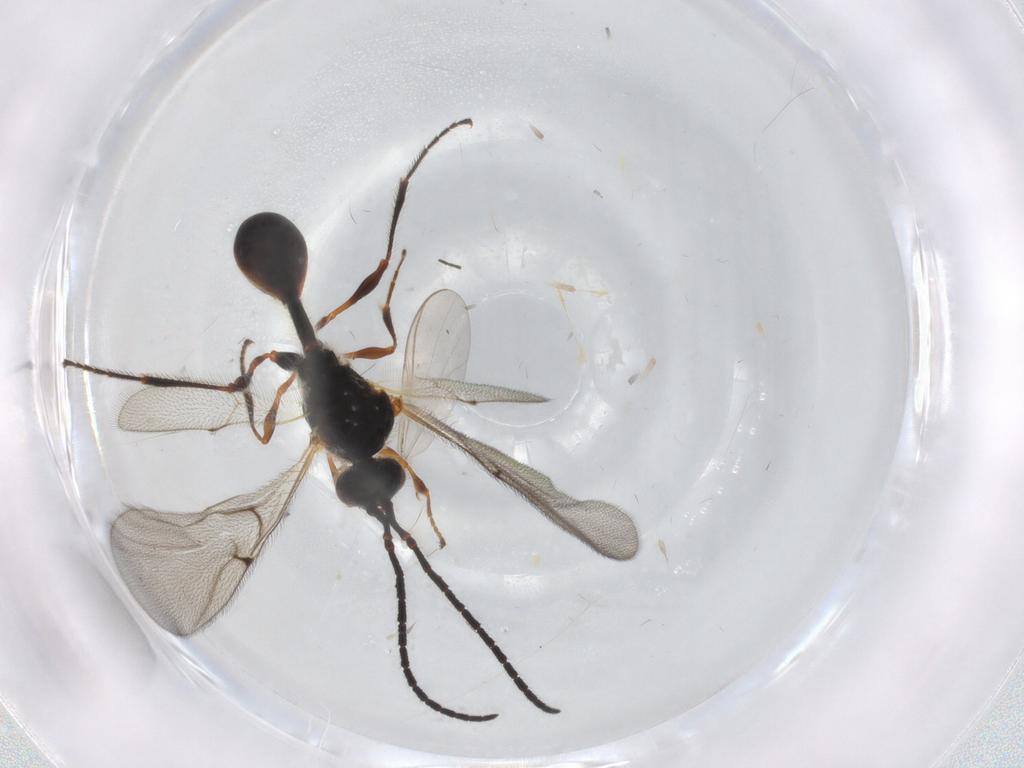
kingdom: Animalia
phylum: Arthropoda
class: Insecta
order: Hymenoptera
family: Diapriidae
